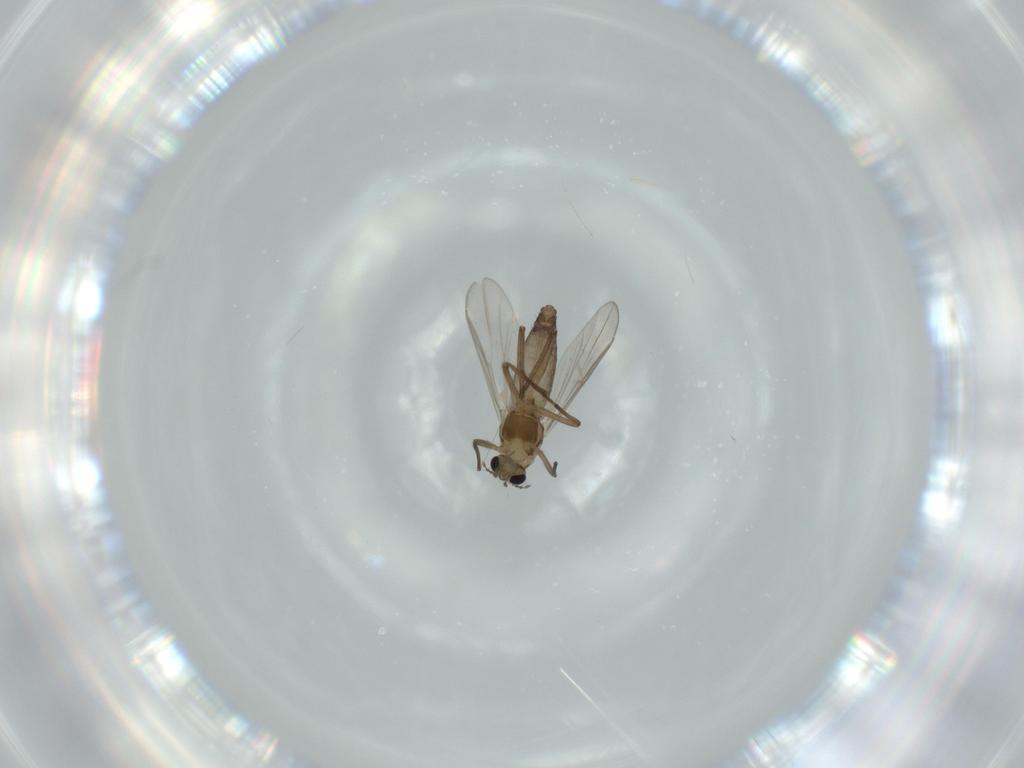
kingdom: Animalia
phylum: Arthropoda
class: Insecta
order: Diptera
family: Chironomidae
